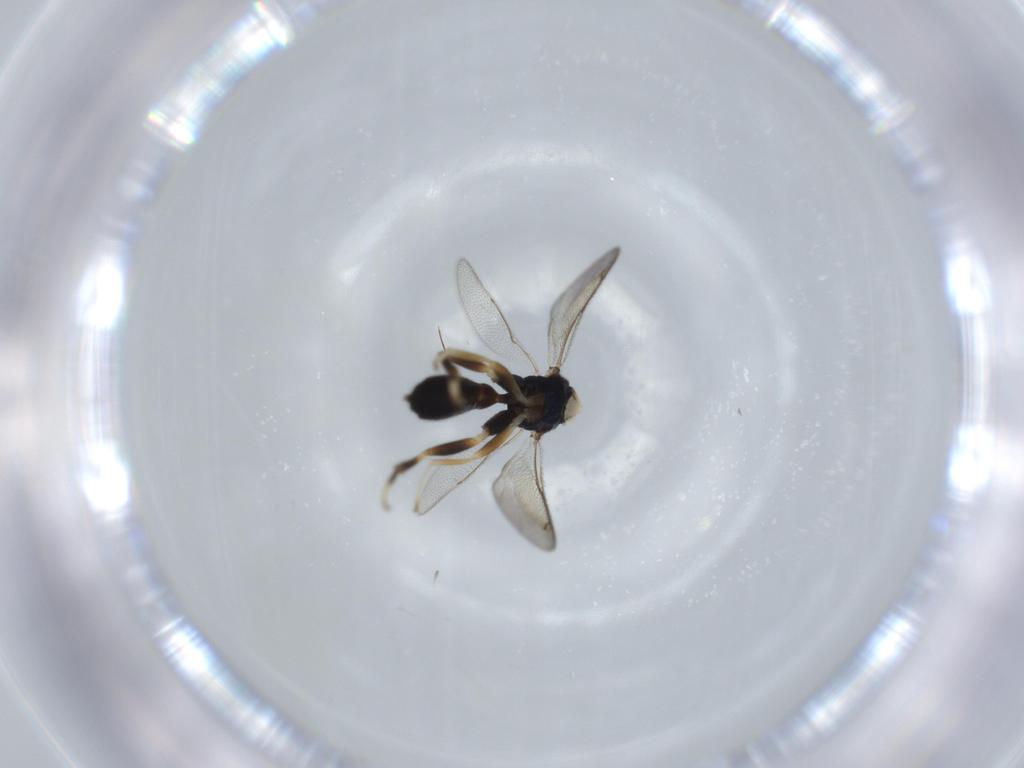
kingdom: Animalia
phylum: Arthropoda
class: Insecta
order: Hymenoptera
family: Cleonyminae
